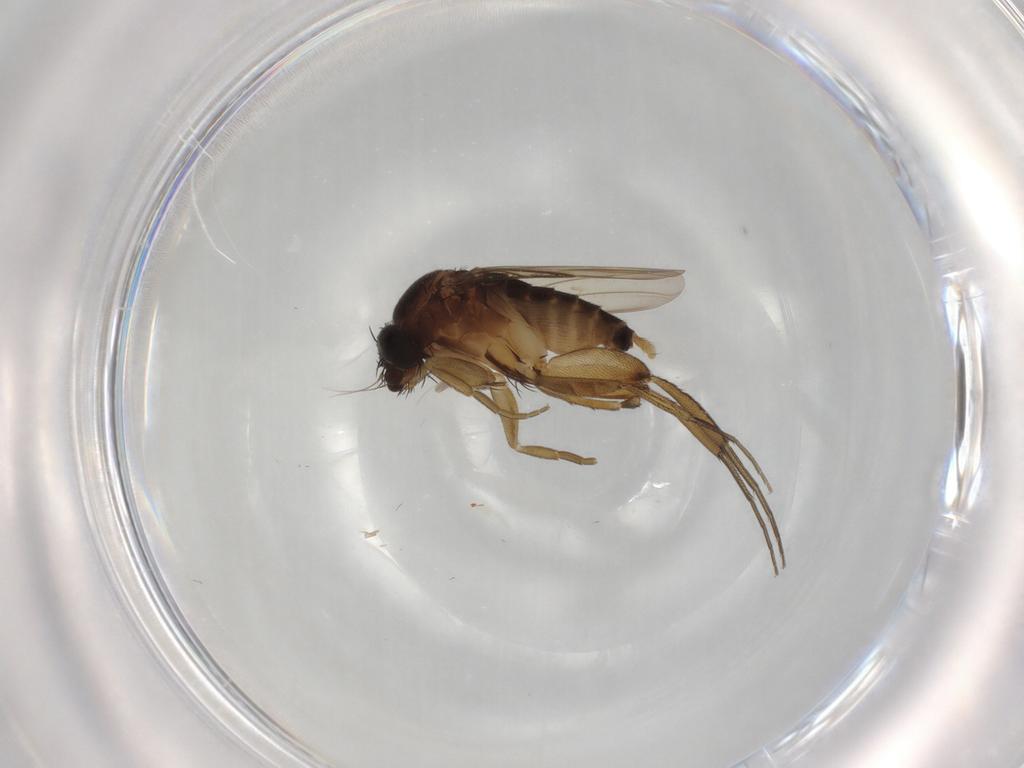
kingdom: Animalia
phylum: Arthropoda
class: Insecta
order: Diptera
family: Phoridae
